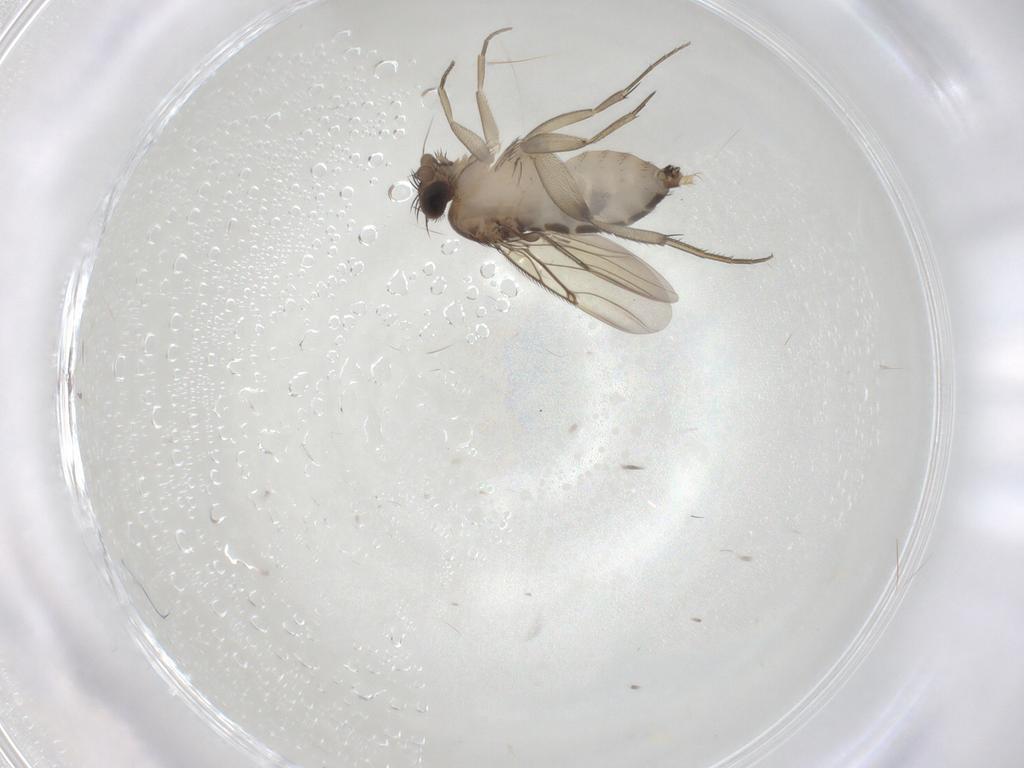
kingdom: Animalia
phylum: Arthropoda
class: Insecta
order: Diptera
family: Phoridae
